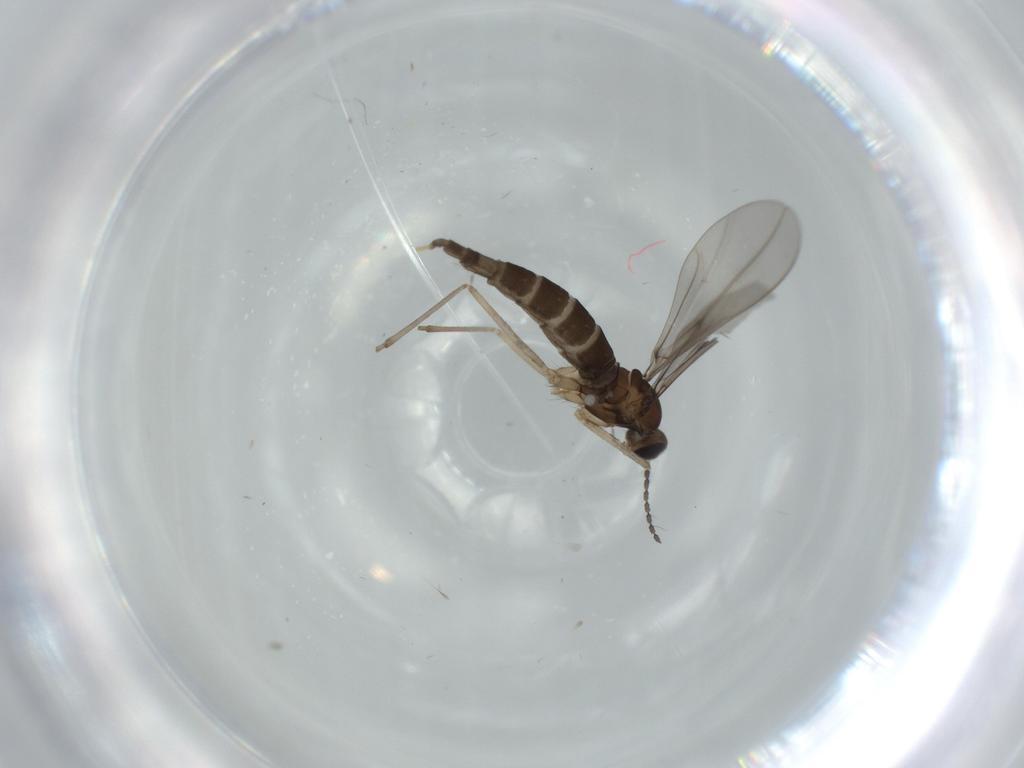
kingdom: Animalia
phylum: Arthropoda
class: Insecta
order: Diptera
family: Cecidomyiidae
